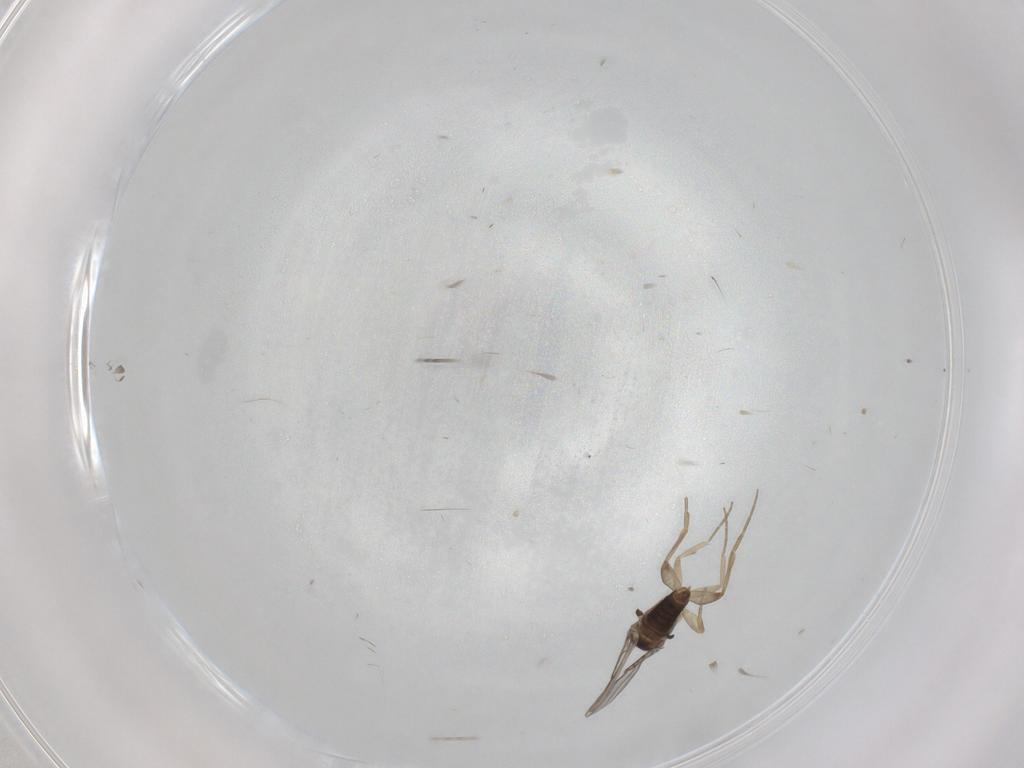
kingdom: Animalia
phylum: Arthropoda
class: Insecta
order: Diptera
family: Phoridae
